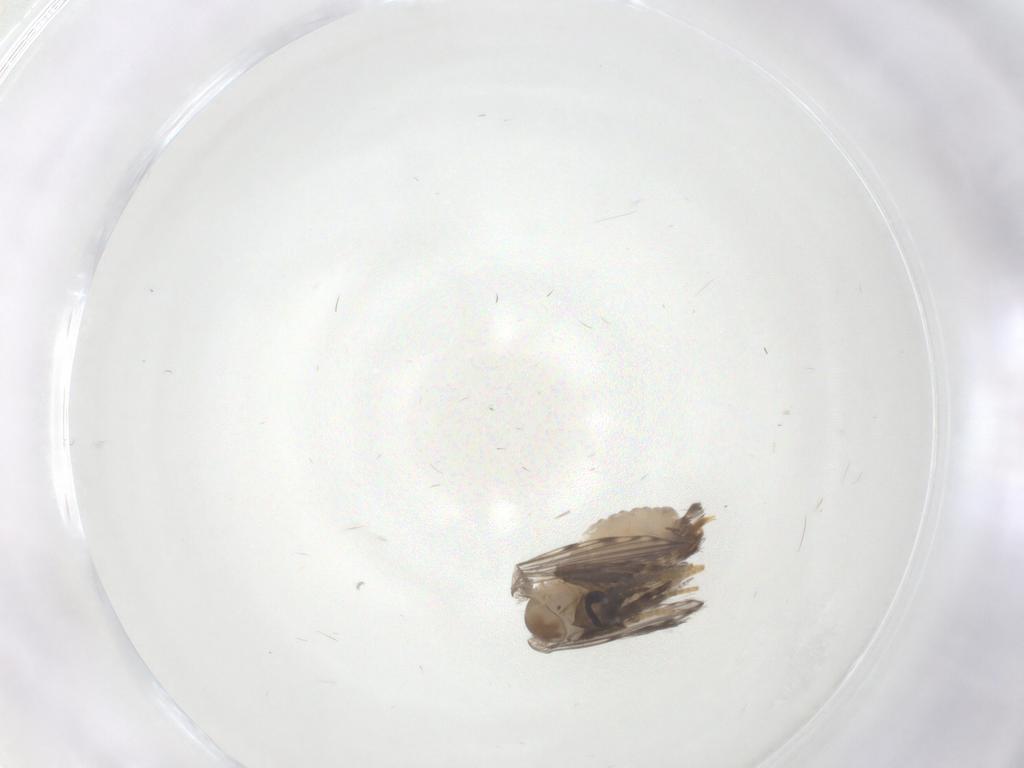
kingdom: Animalia
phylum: Arthropoda
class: Insecta
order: Diptera
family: Psychodidae
